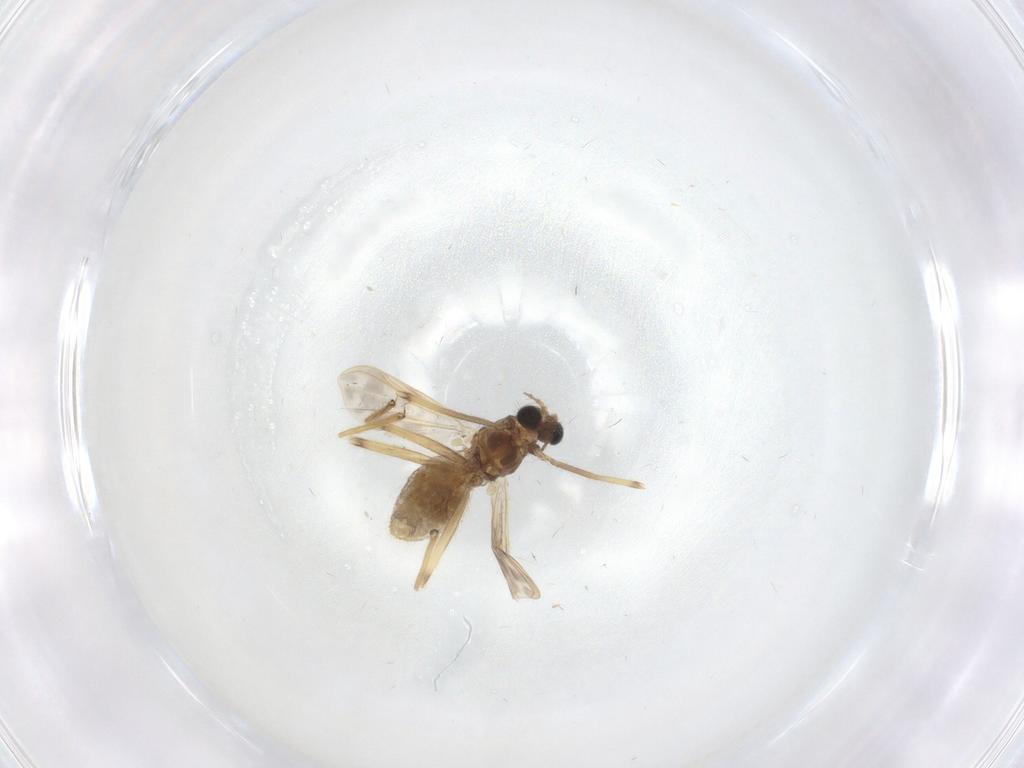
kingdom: Animalia
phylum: Arthropoda
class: Insecta
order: Diptera
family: Chironomidae
